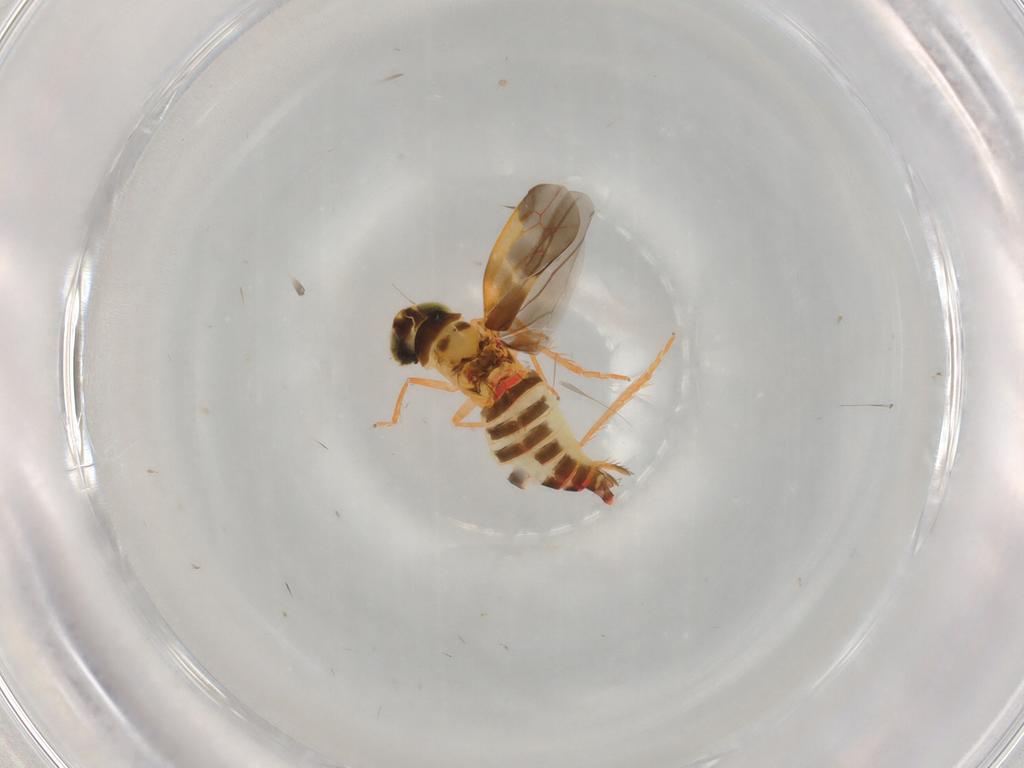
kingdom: Animalia
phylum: Arthropoda
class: Insecta
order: Hemiptera
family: Cicadellidae
